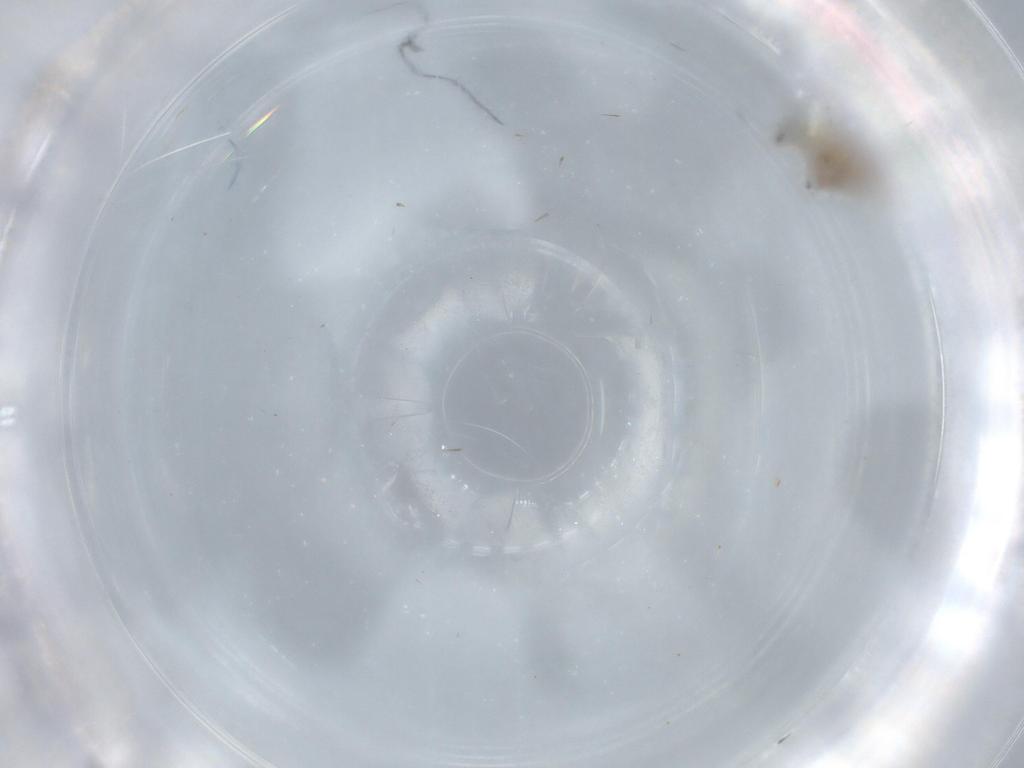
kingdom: Animalia
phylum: Arthropoda
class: Insecta
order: Psocodea
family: Lachesillidae
